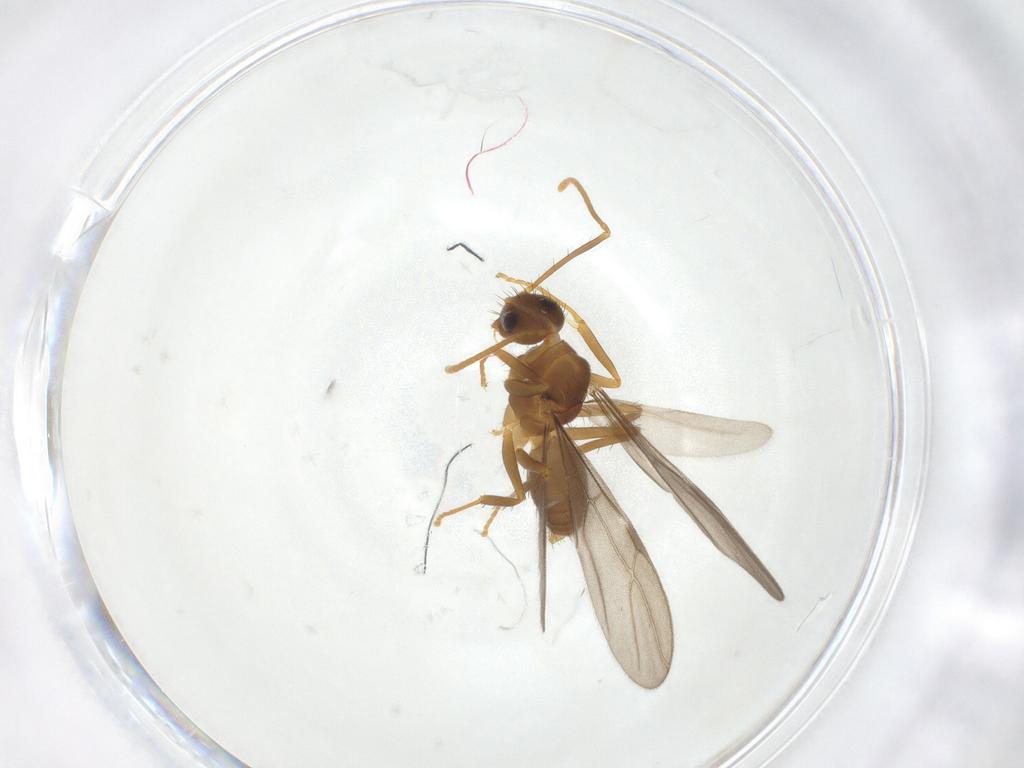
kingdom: Animalia
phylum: Arthropoda
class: Insecta
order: Hymenoptera
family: Formicidae
